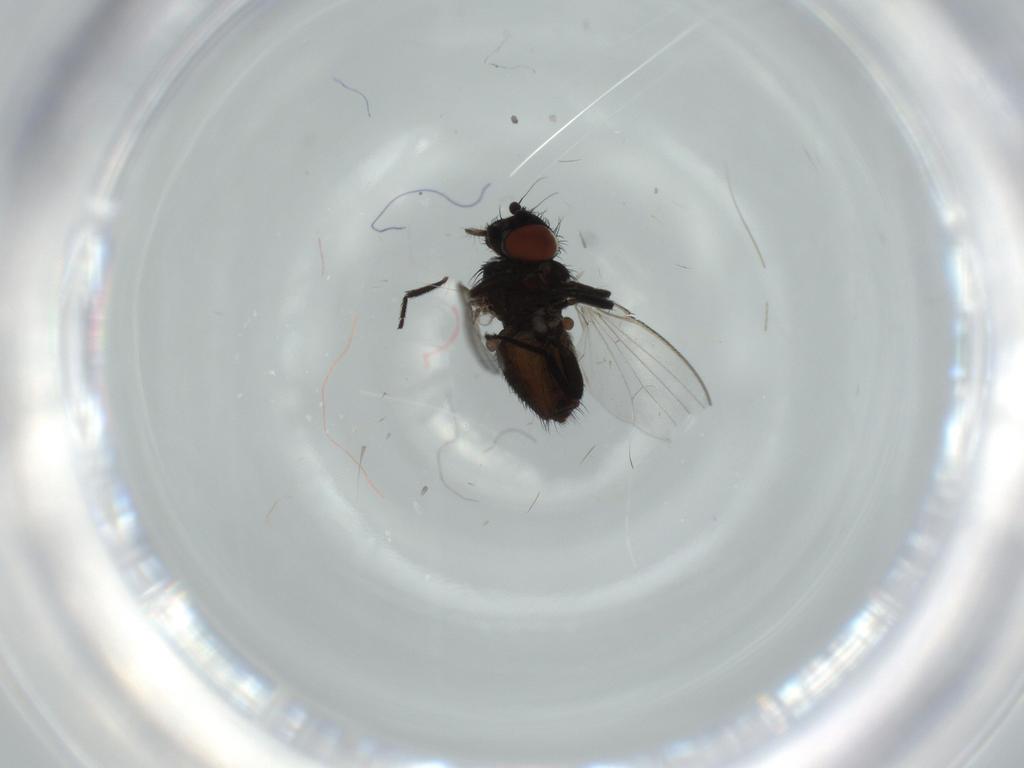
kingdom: Animalia
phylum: Arthropoda
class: Insecta
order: Diptera
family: Milichiidae
